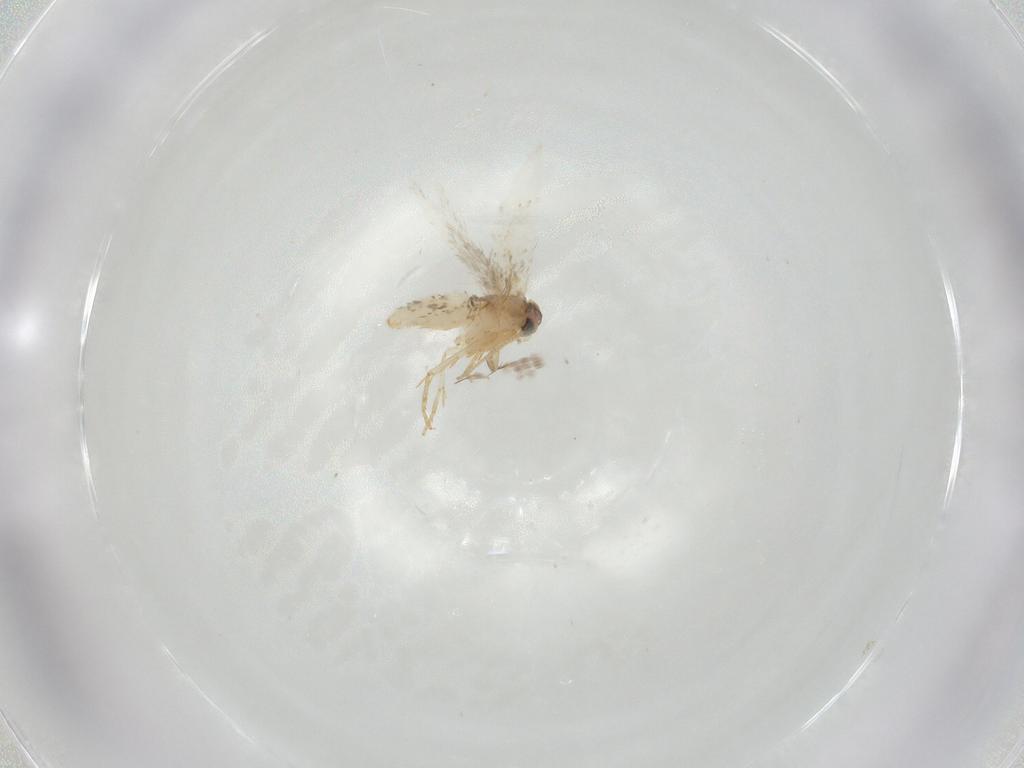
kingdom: Animalia
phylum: Arthropoda
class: Insecta
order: Lepidoptera
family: Nepticulidae
